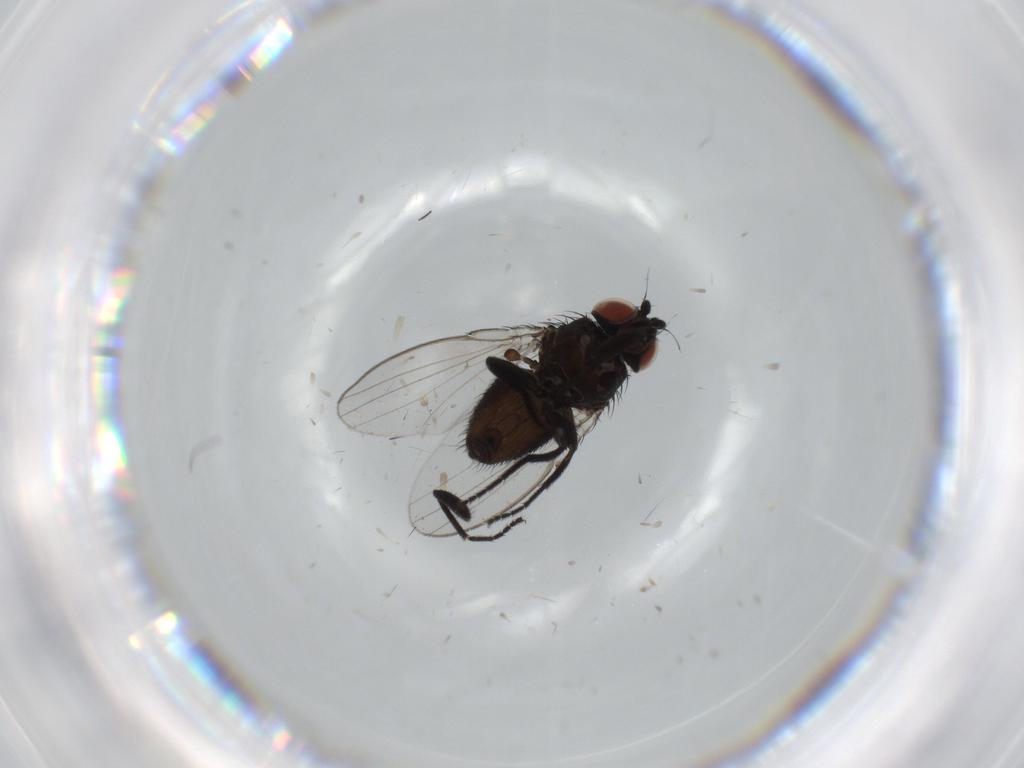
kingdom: Animalia
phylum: Arthropoda
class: Insecta
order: Diptera
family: Milichiidae
